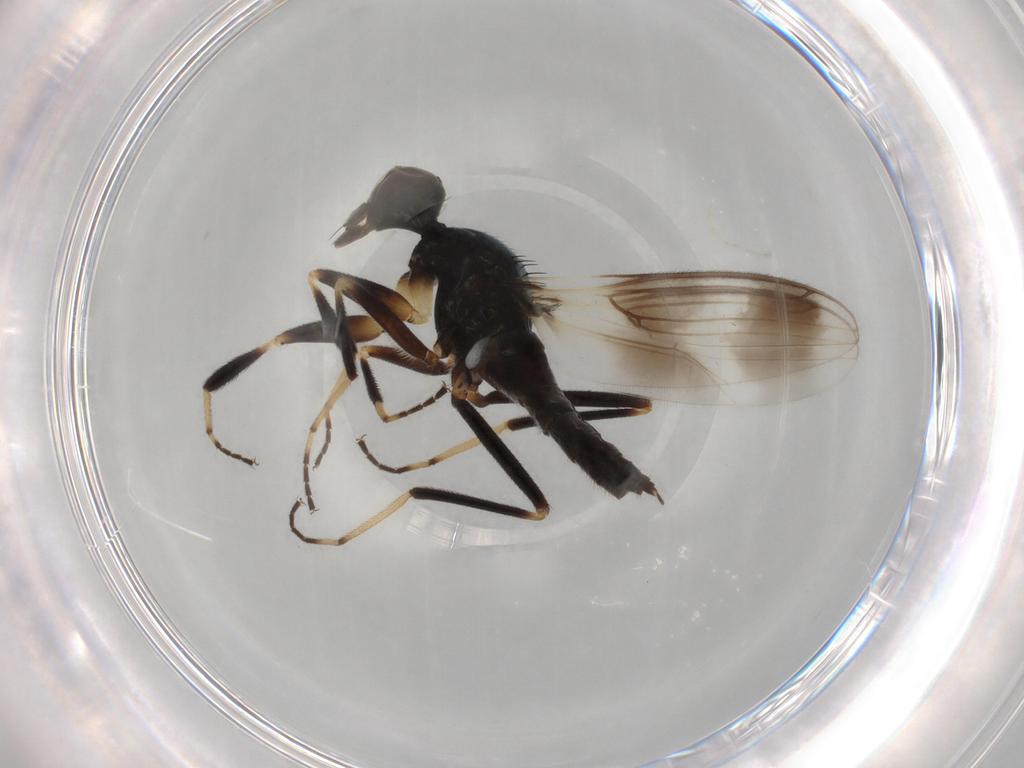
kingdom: Animalia
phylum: Arthropoda
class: Insecta
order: Diptera
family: Hybotidae
